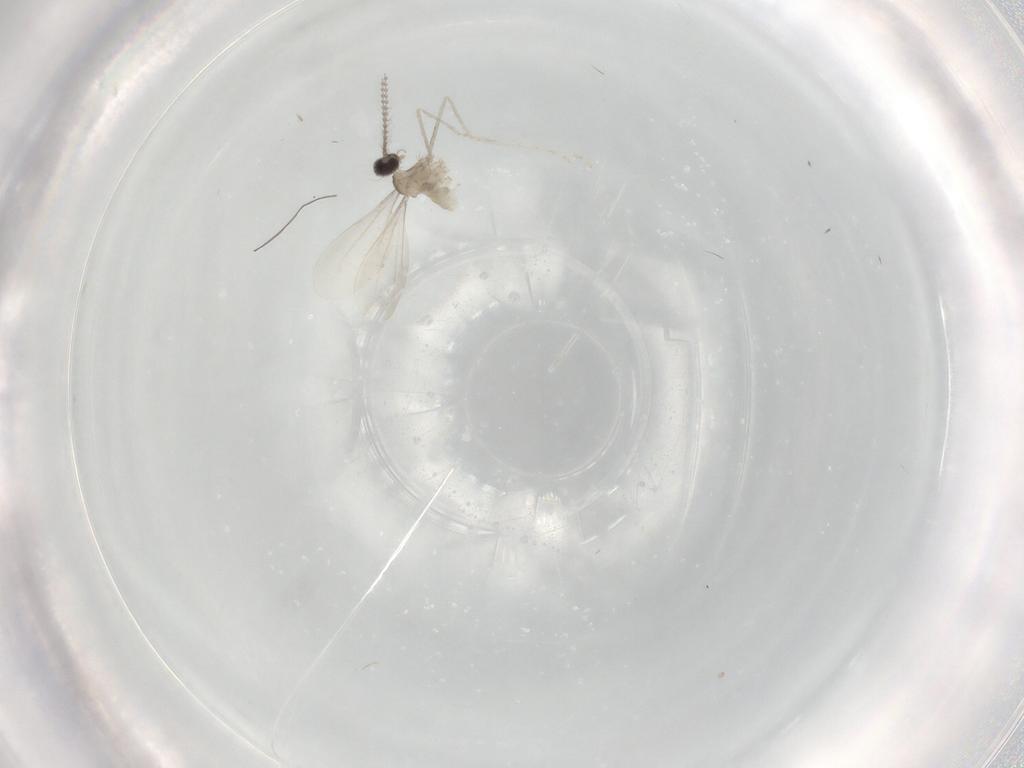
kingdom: Animalia
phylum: Arthropoda
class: Insecta
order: Diptera
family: Cecidomyiidae
